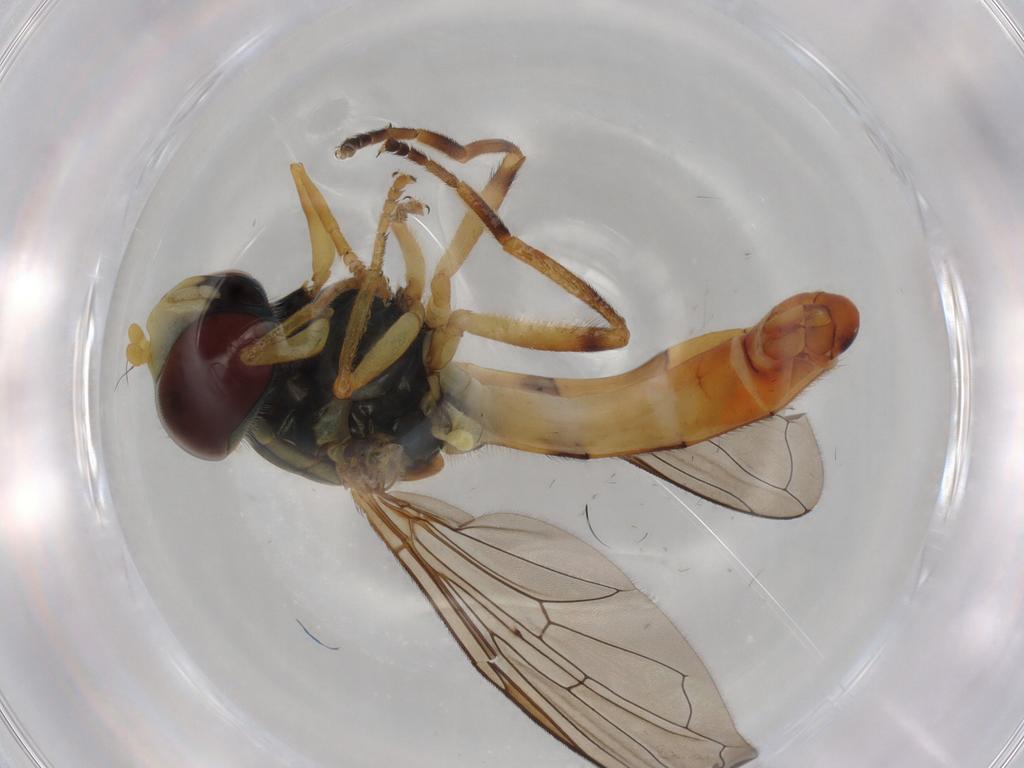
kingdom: Animalia
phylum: Arthropoda
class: Insecta
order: Diptera
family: Syrphidae
